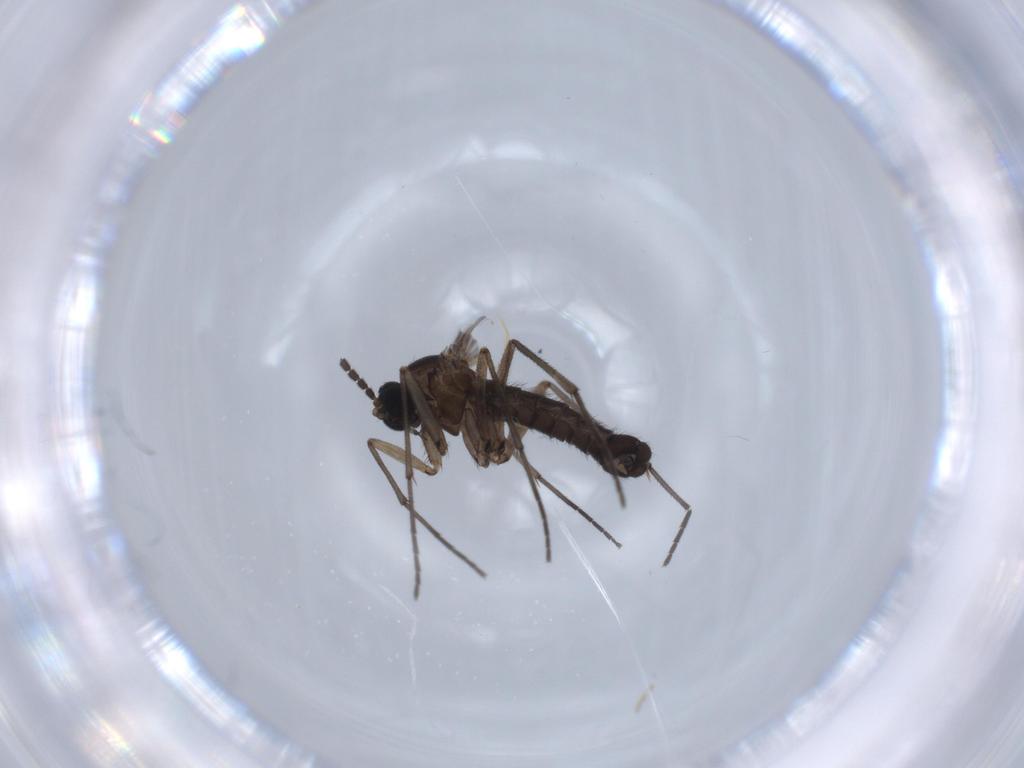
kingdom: Animalia
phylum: Arthropoda
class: Insecta
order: Diptera
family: Sciaridae
